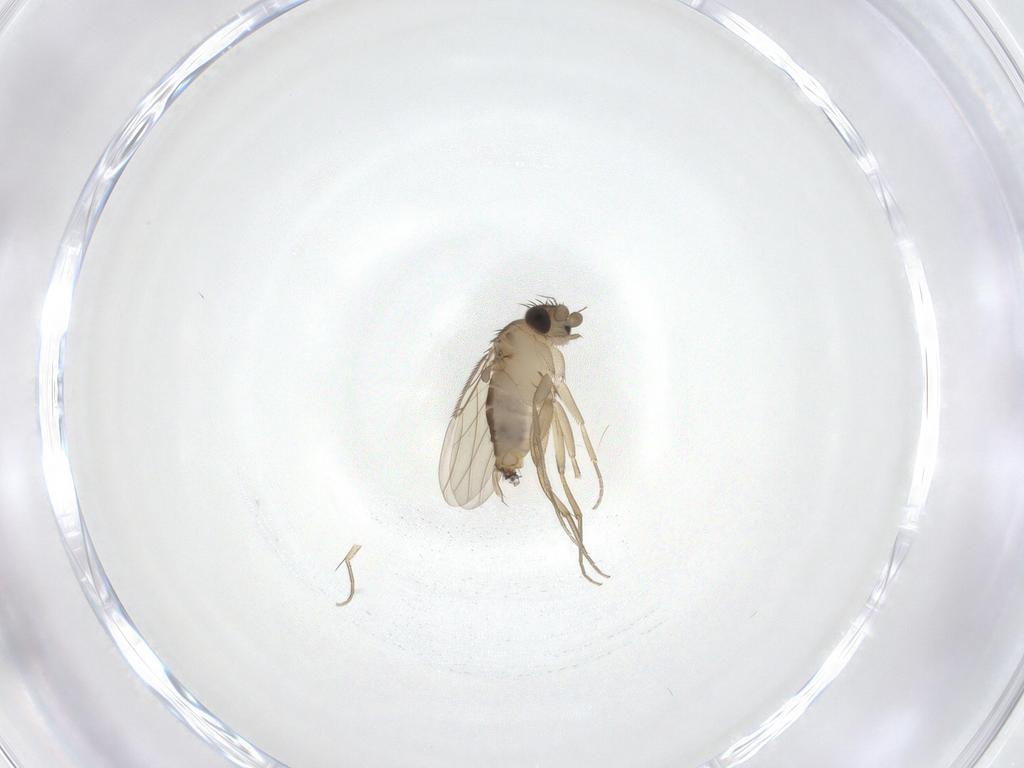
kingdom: Animalia
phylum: Arthropoda
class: Insecta
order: Diptera
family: Phoridae
